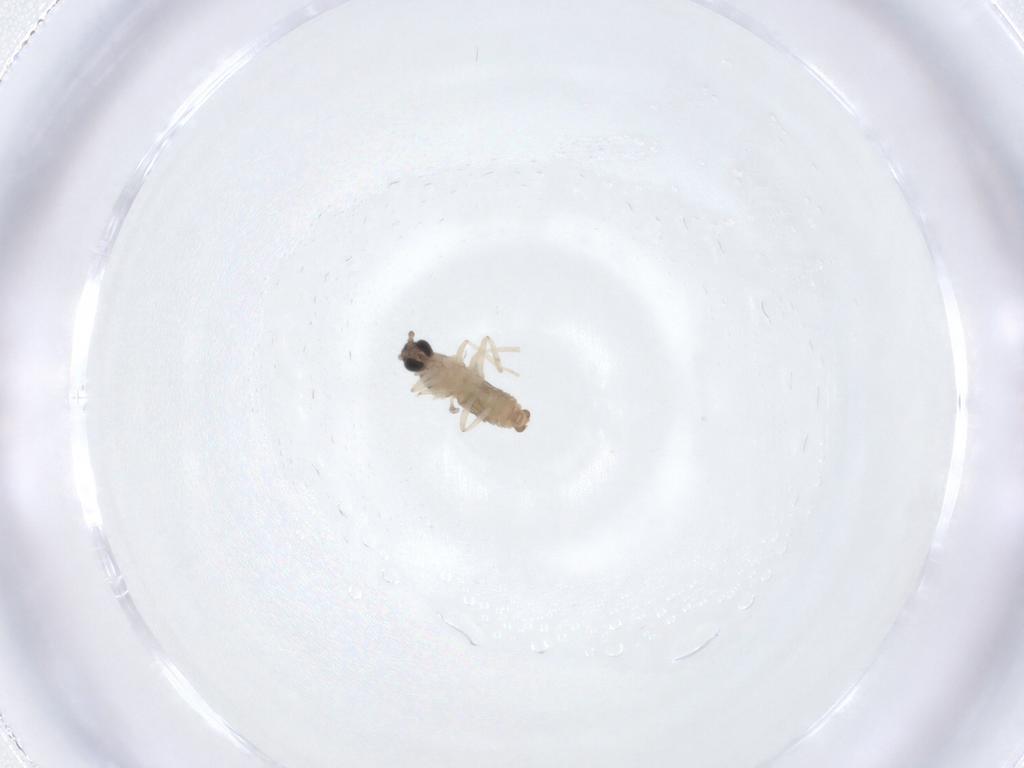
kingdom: Animalia
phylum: Arthropoda
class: Insecta
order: Diptera
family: Cecidomyiidae
